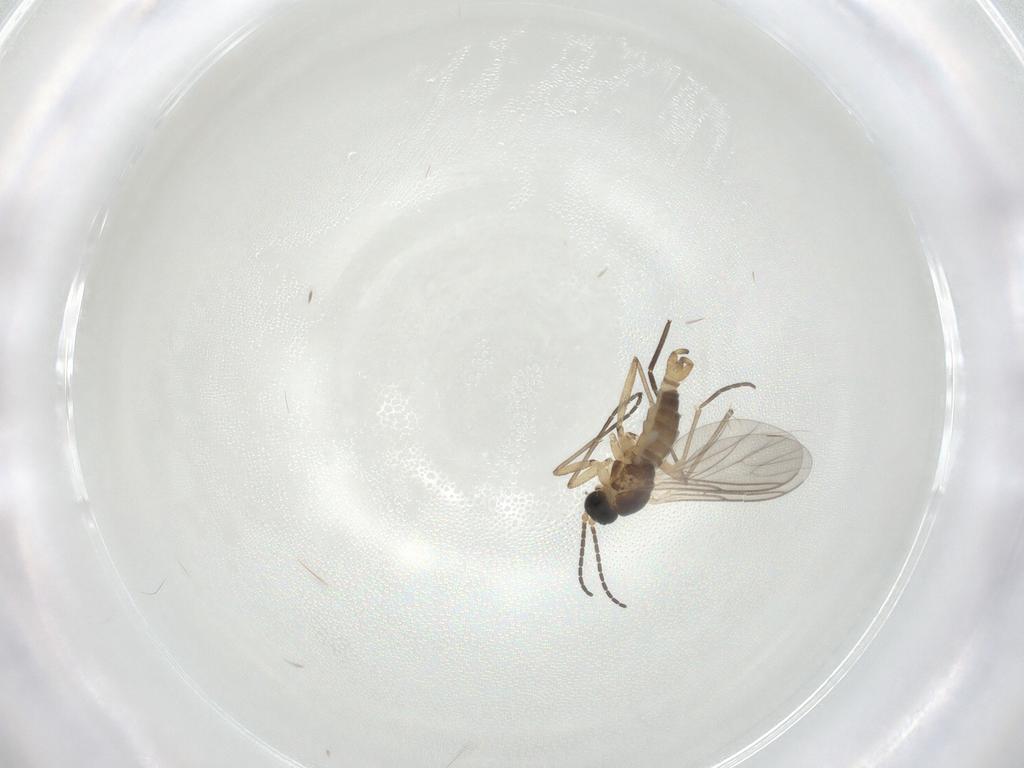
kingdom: Animalia
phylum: Arthropoda
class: Insecta
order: Diptera
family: Sciaridae
